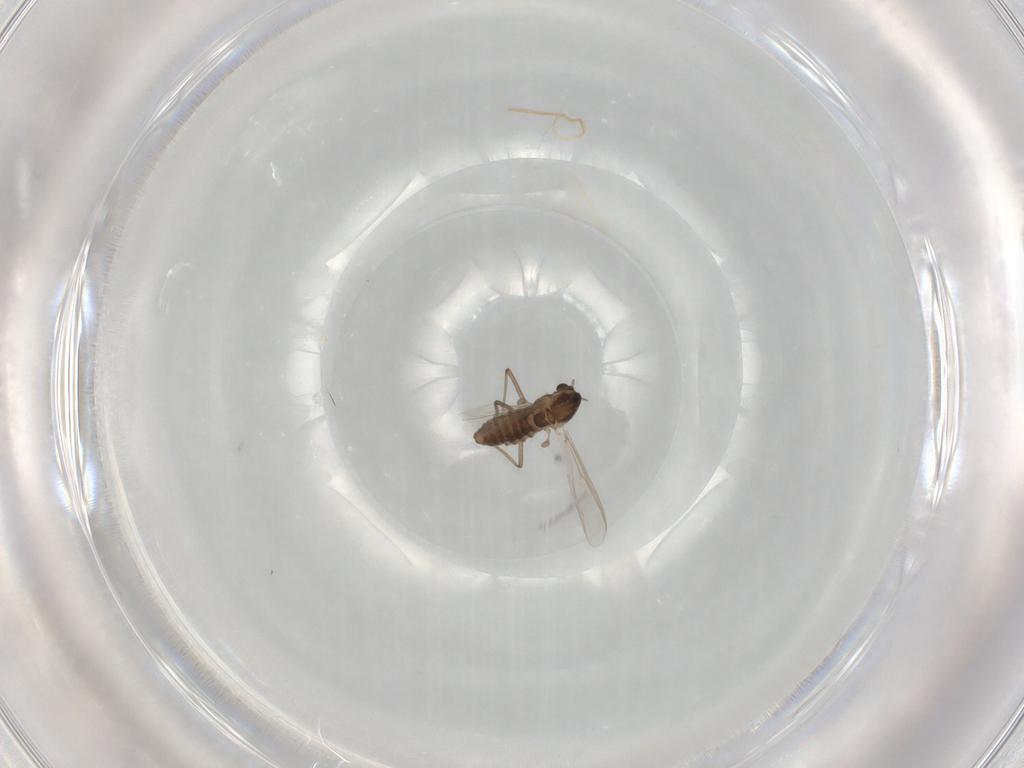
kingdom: Animalia
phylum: Arthropoda
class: Insecta
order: Diptera
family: Chironomidae
